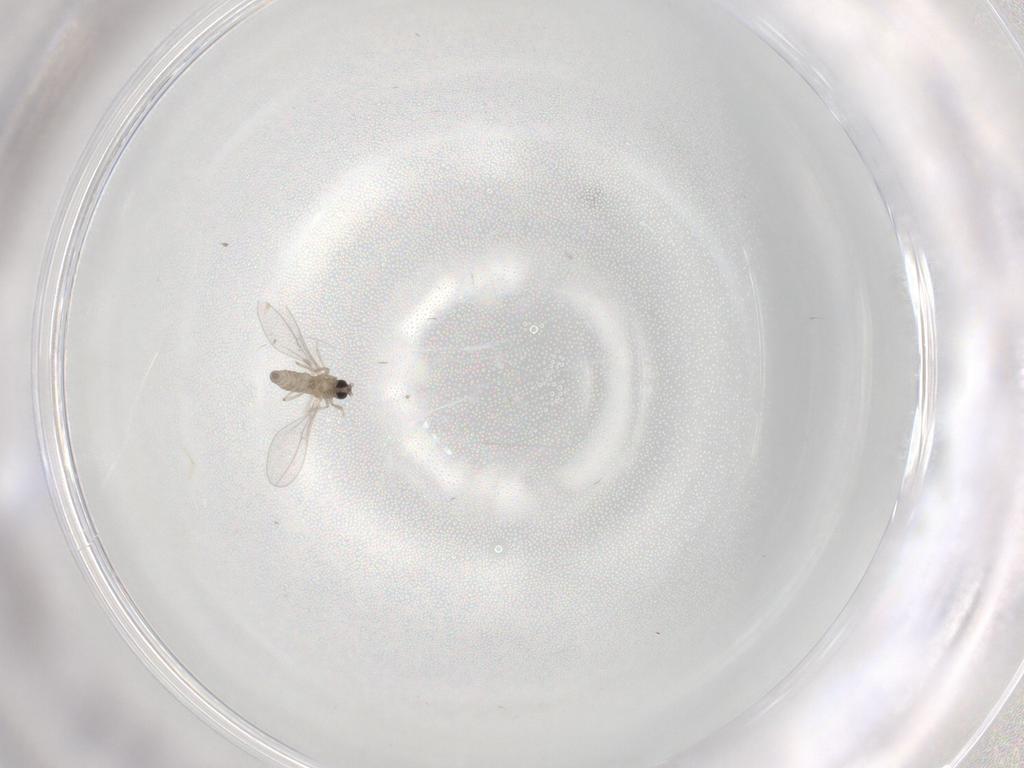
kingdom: Animalia
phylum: Arthropoda
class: Insecta
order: Diptera
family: Cecidomyiidae
